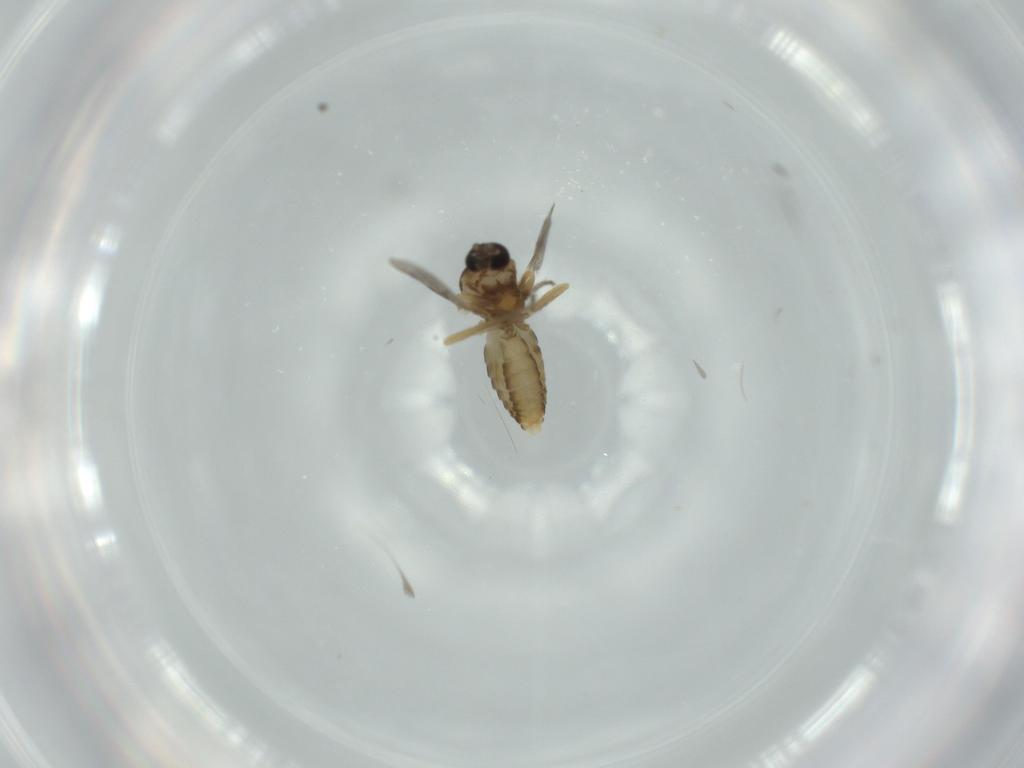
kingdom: Animalia
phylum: Arthropoda
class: Insecta
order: Diptera
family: Ceratopogonidae
